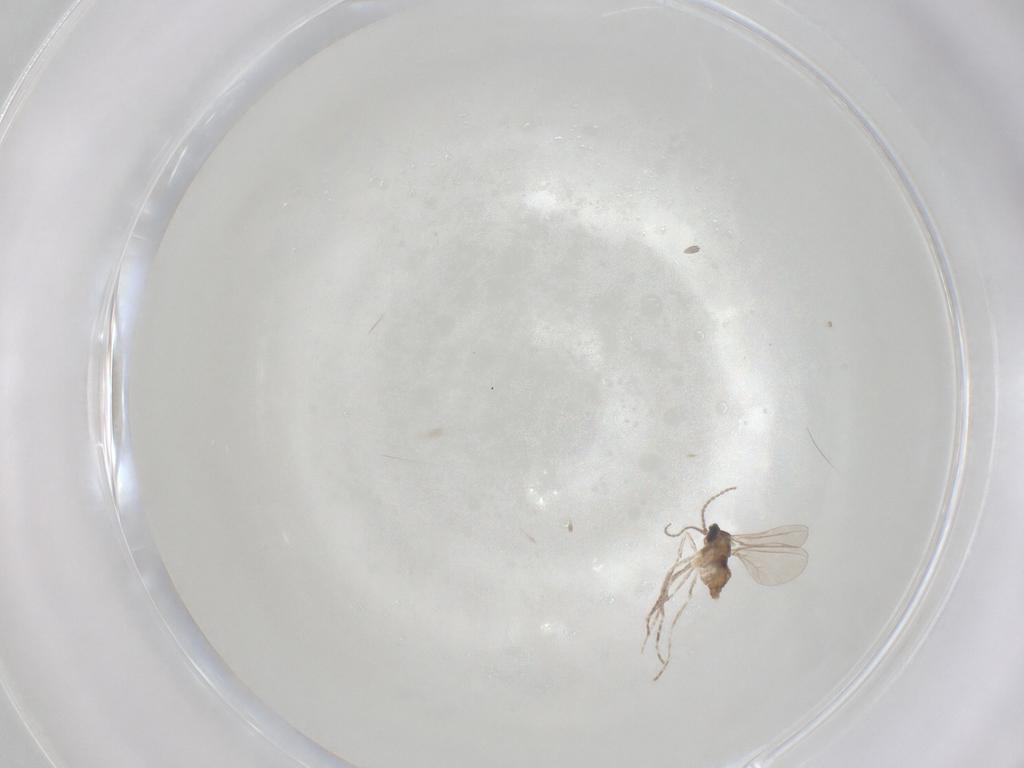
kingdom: Animalia
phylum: Arthropoda
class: Insecta
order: Diptera
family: Cecidomyiidae
